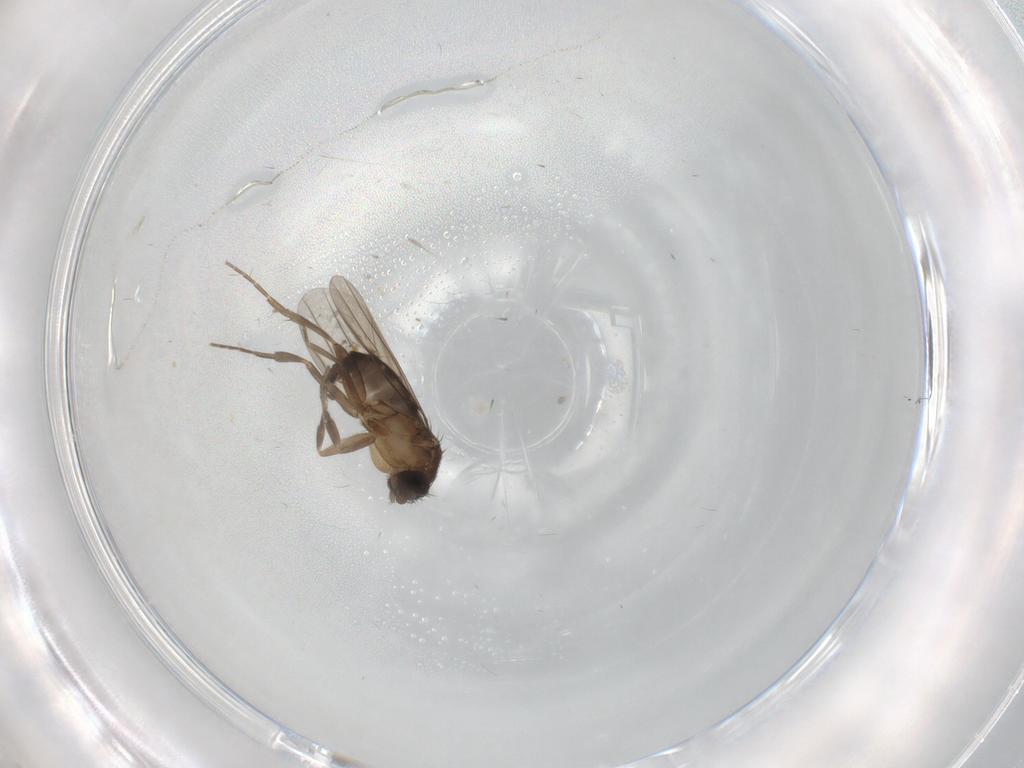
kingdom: Animalia
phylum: Arthropoda
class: Insecta
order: Diptera
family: Phoridae
